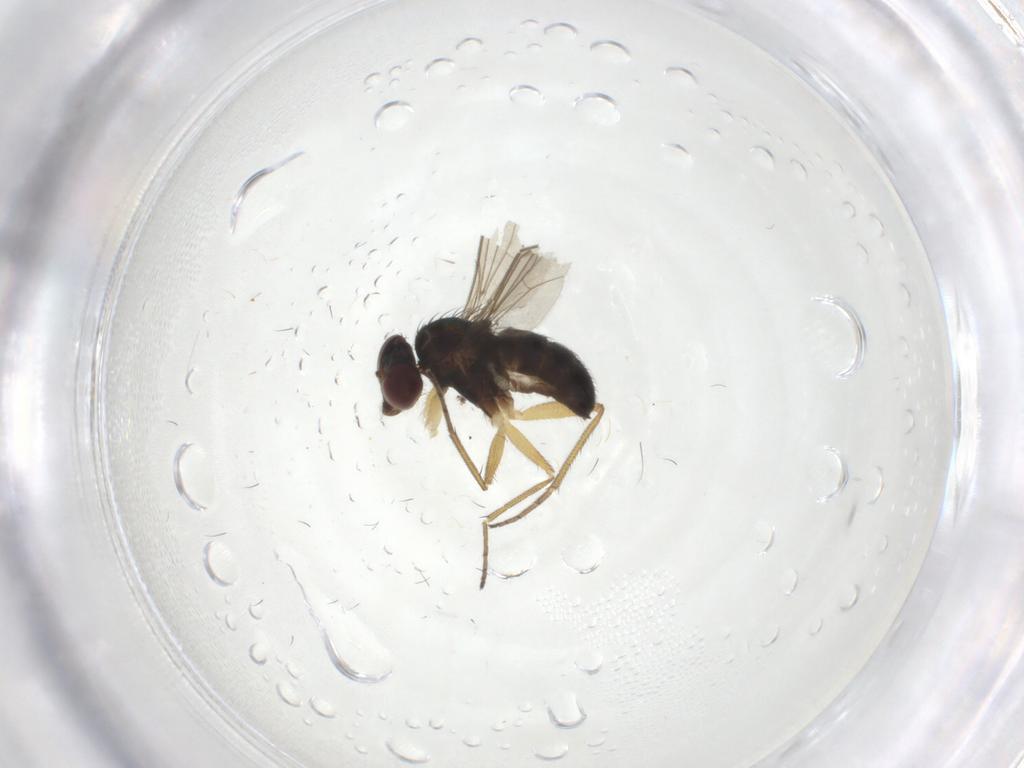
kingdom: Animalia
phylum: Arthropoda
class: Insecta
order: Diptera
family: Dolichopodidae
